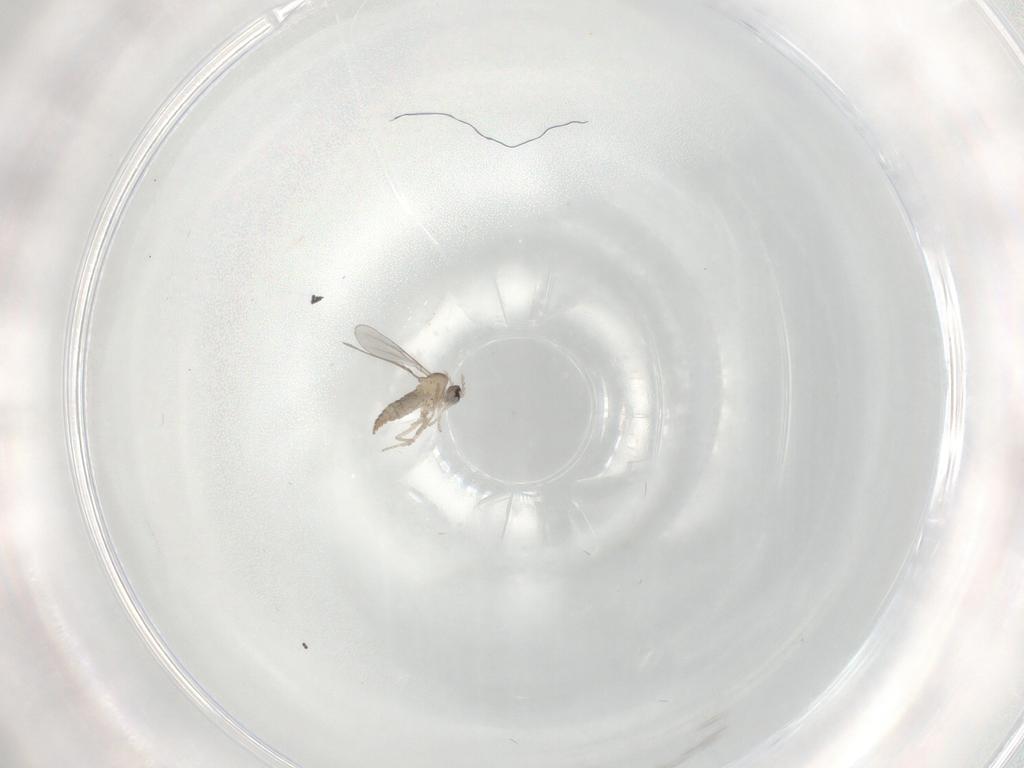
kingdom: Animalia
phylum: Arthropoda
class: Insecta
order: Diptera
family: Cecidomyiidae
